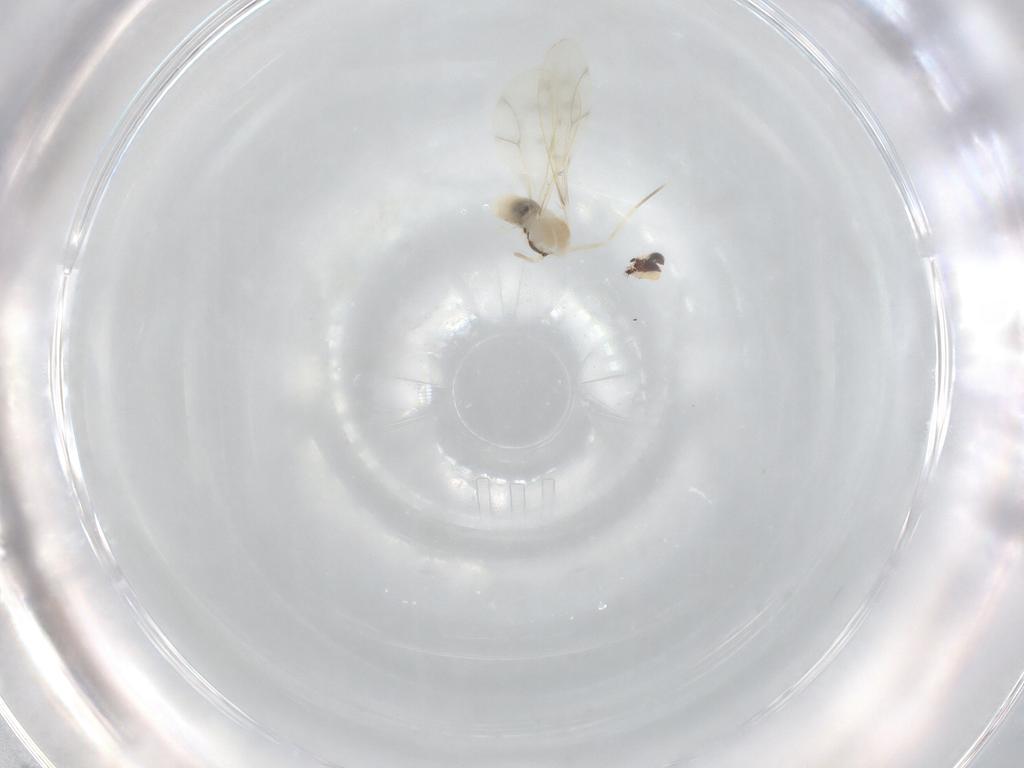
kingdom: Animalia
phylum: Arthropoda
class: Insecta
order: Diptera
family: Cecidomyiidae
